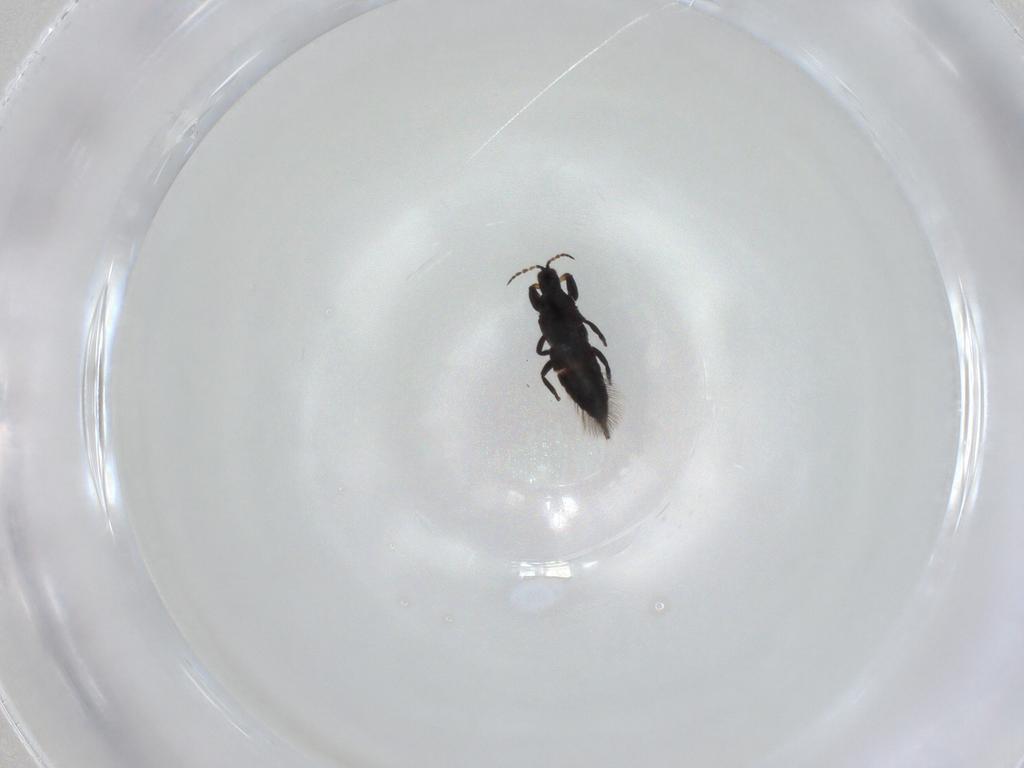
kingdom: Animalia
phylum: Arthropoda
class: Insecta
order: Thysanoptera
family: Phlaeothripidae
